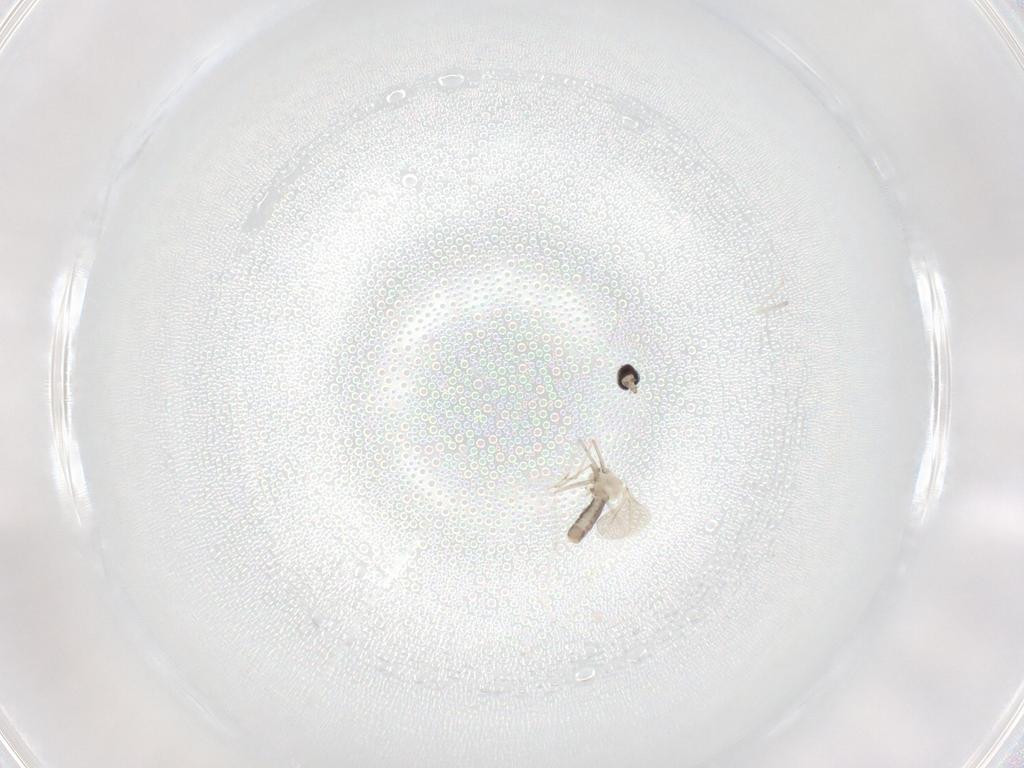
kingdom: Animalia
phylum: Arthropoda
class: Insecta
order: Diptera
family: Cecidomyiidae
